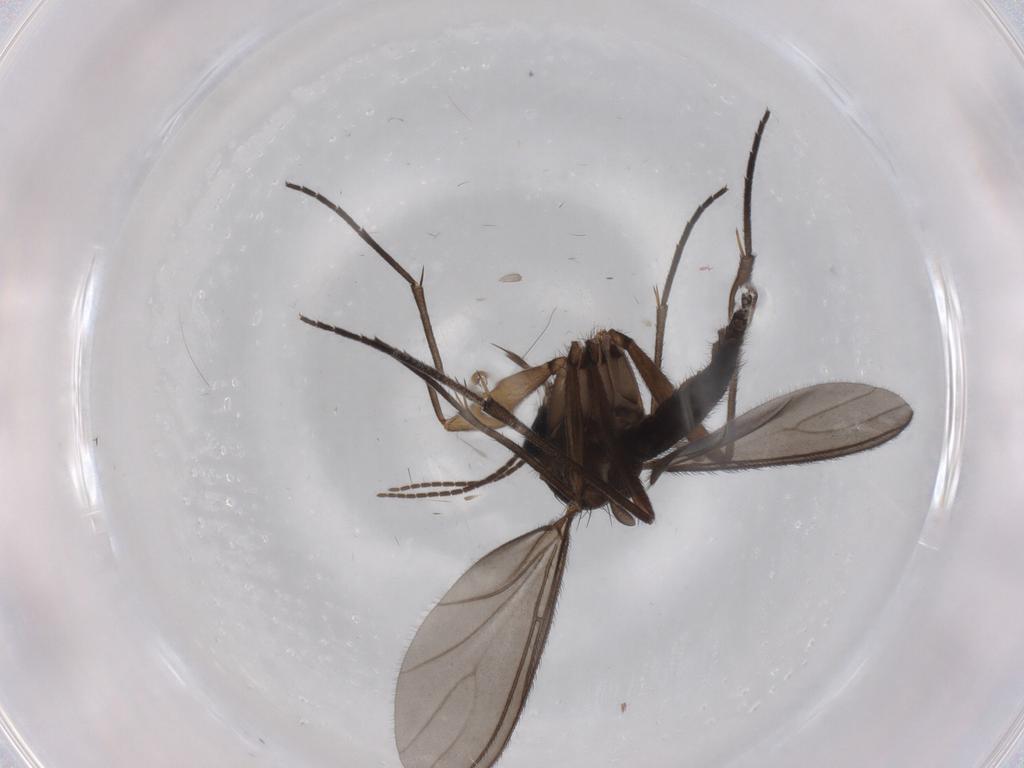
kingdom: Animalia
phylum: Arthropoda
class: Insecta
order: Diptera
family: Sciaridae
